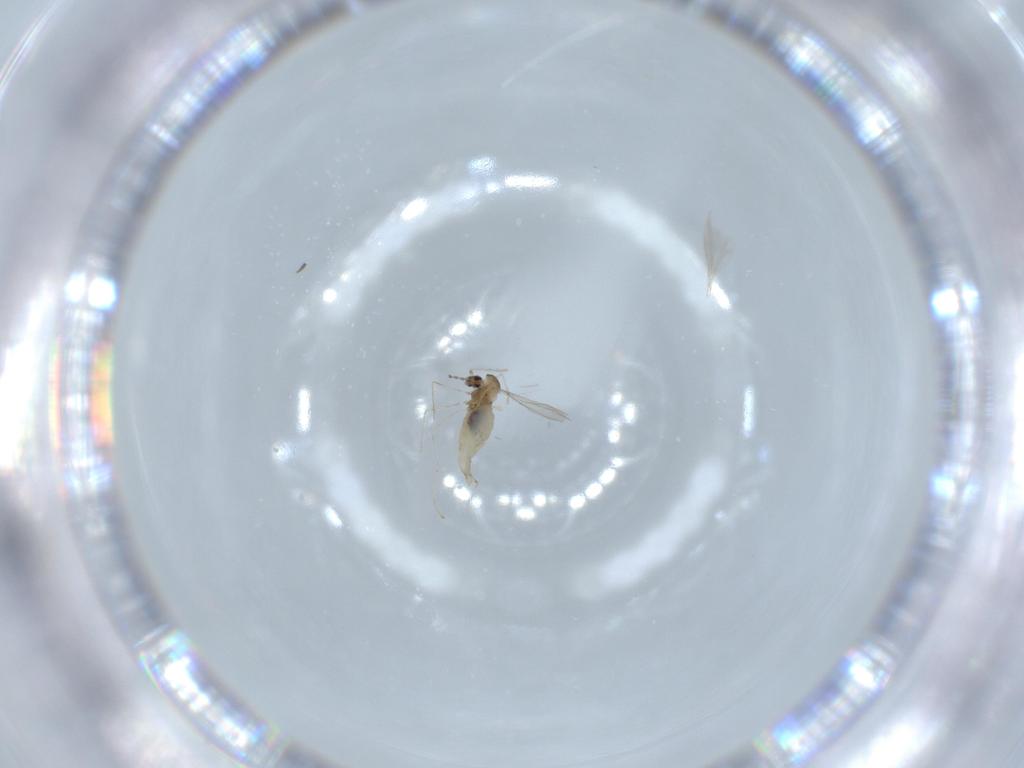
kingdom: Animalia
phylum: Arthropoda
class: Insecta
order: Diptera
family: Cecidomyiidae
